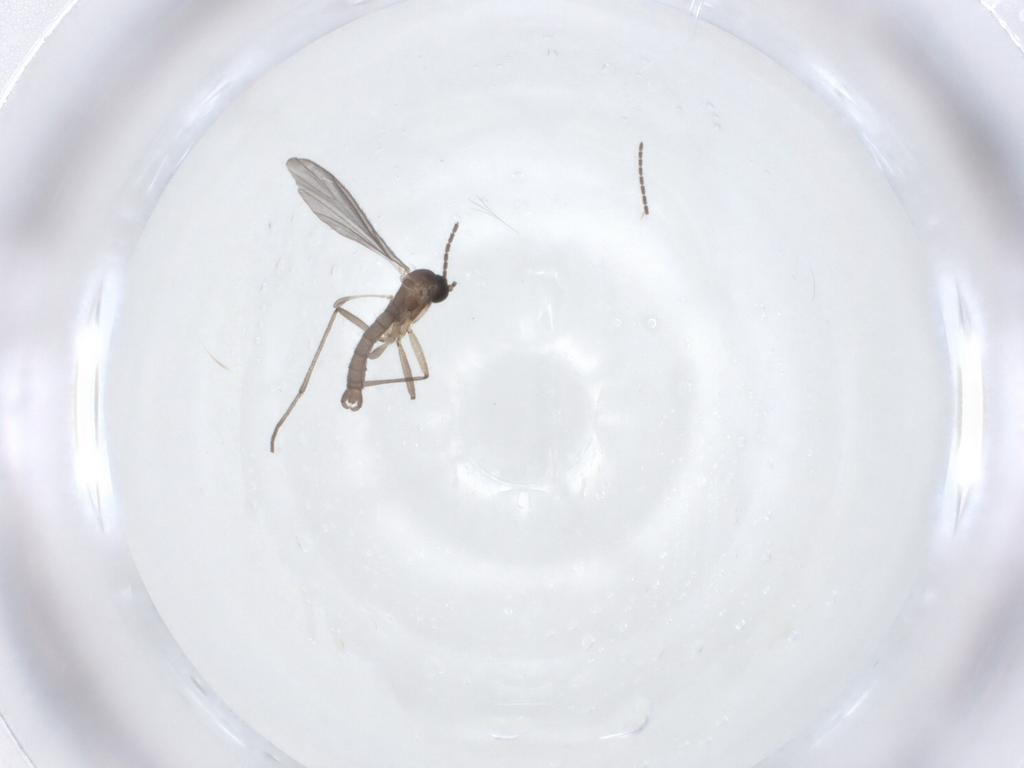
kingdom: Animalia
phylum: Arthropoda
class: Insecta
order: Diptera
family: Sciaridae
